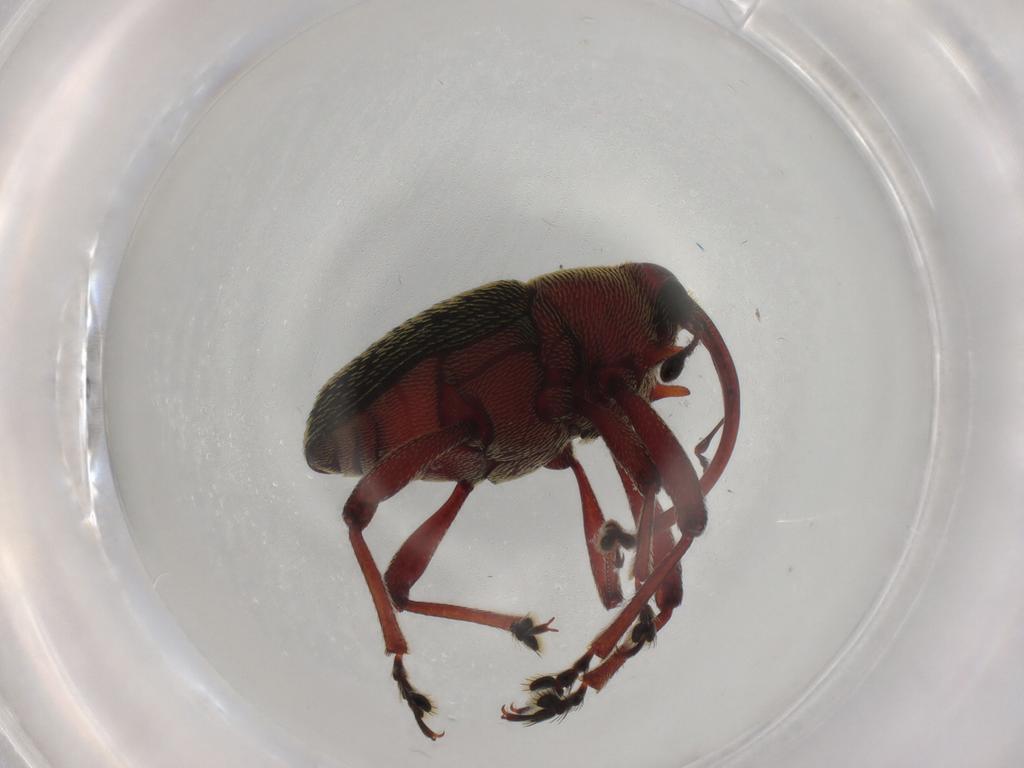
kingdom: Animalia
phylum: Arthropoda
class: Insecta
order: Coleoptera
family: Curculionidae
